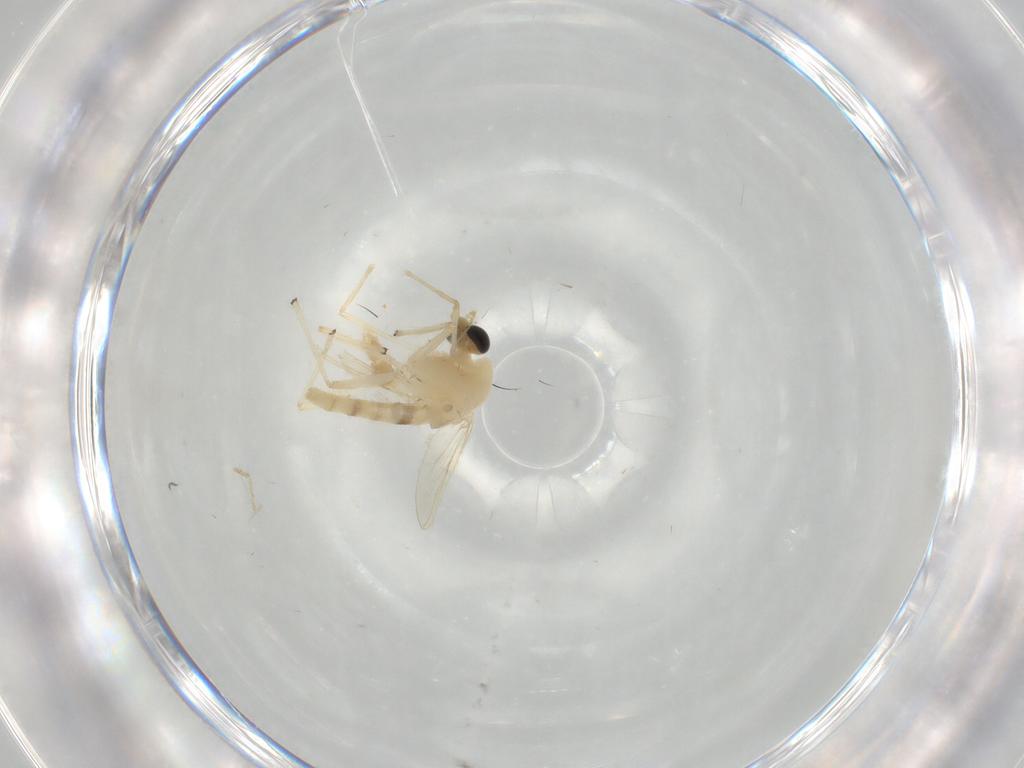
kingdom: Animalia
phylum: Arthropoda
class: Insecta
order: Diptera
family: Chironomidae
